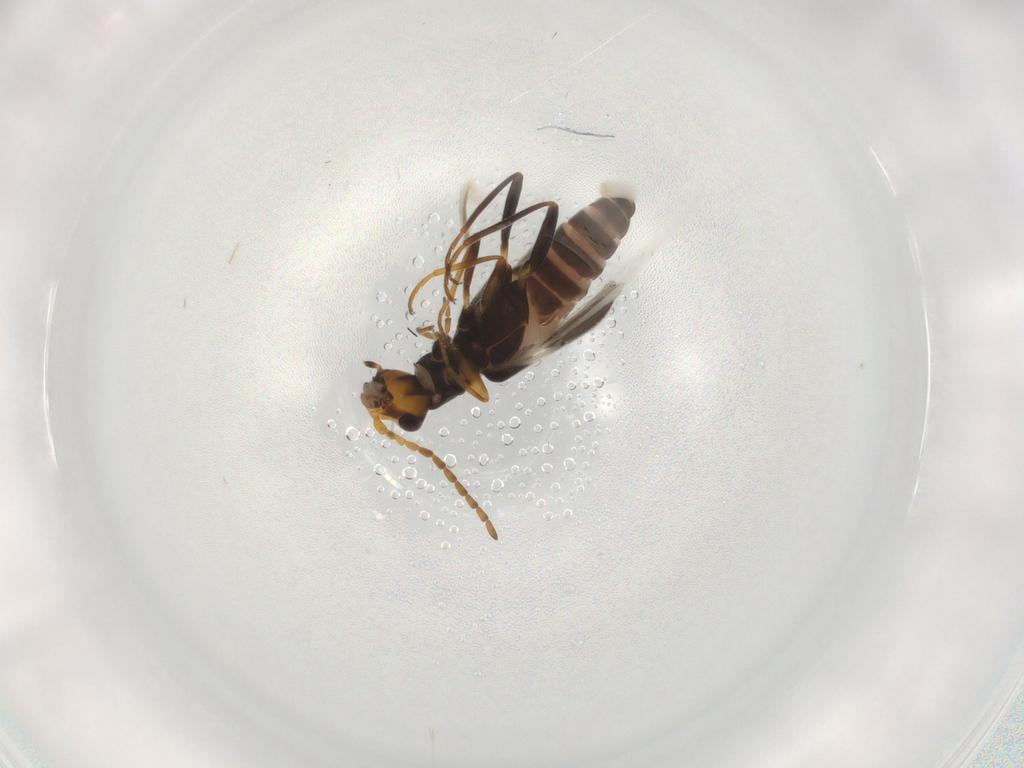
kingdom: Animalia
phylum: Arthropoda
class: Insecta
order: Coleoptera
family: Melyridae
